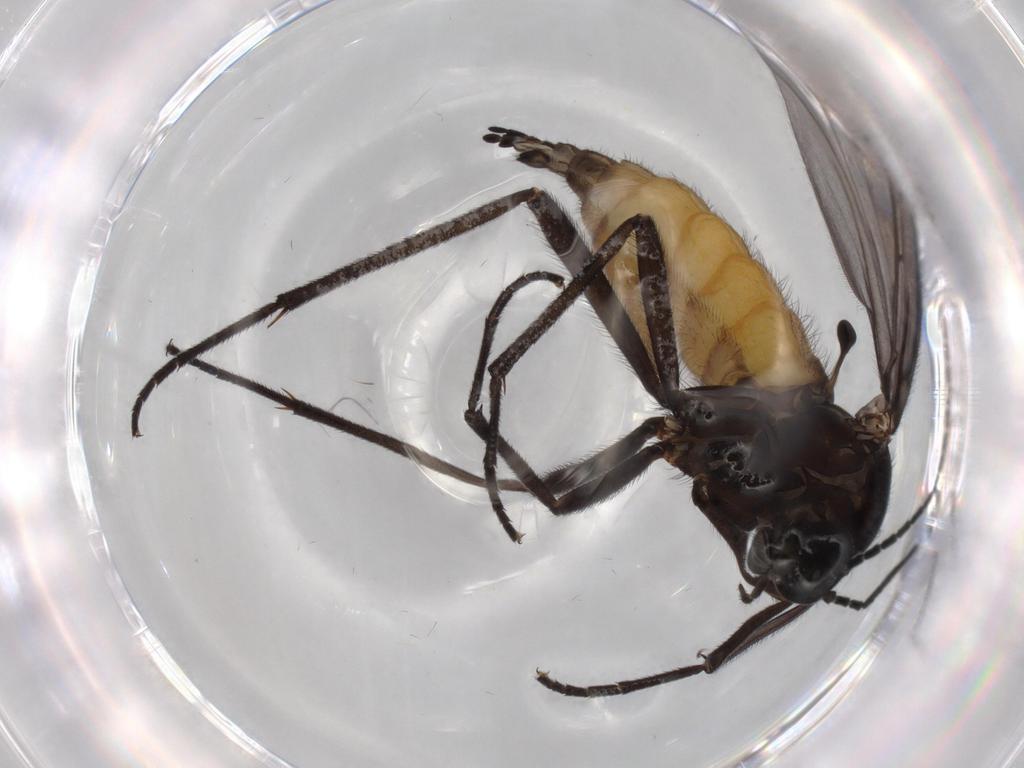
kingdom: Animalia
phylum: Arthropoda
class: Insecta
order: Diptera
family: Sciaridae
